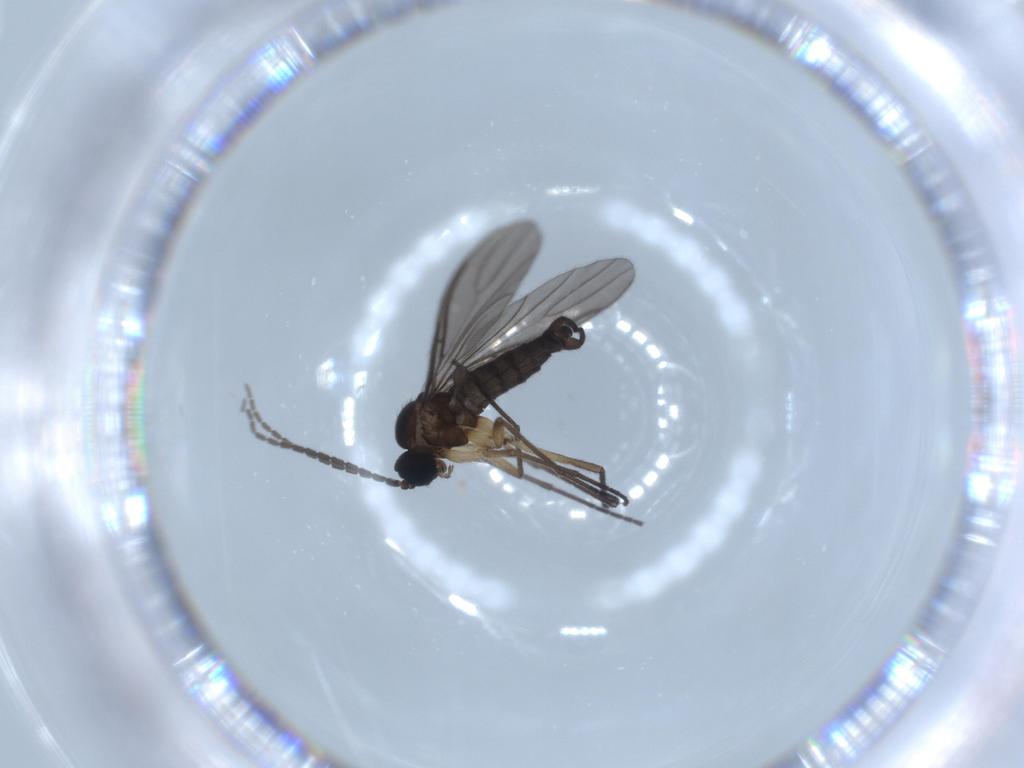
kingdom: Animalia
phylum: Arthropoda
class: Insecta
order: Diptera
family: Sciaridae
